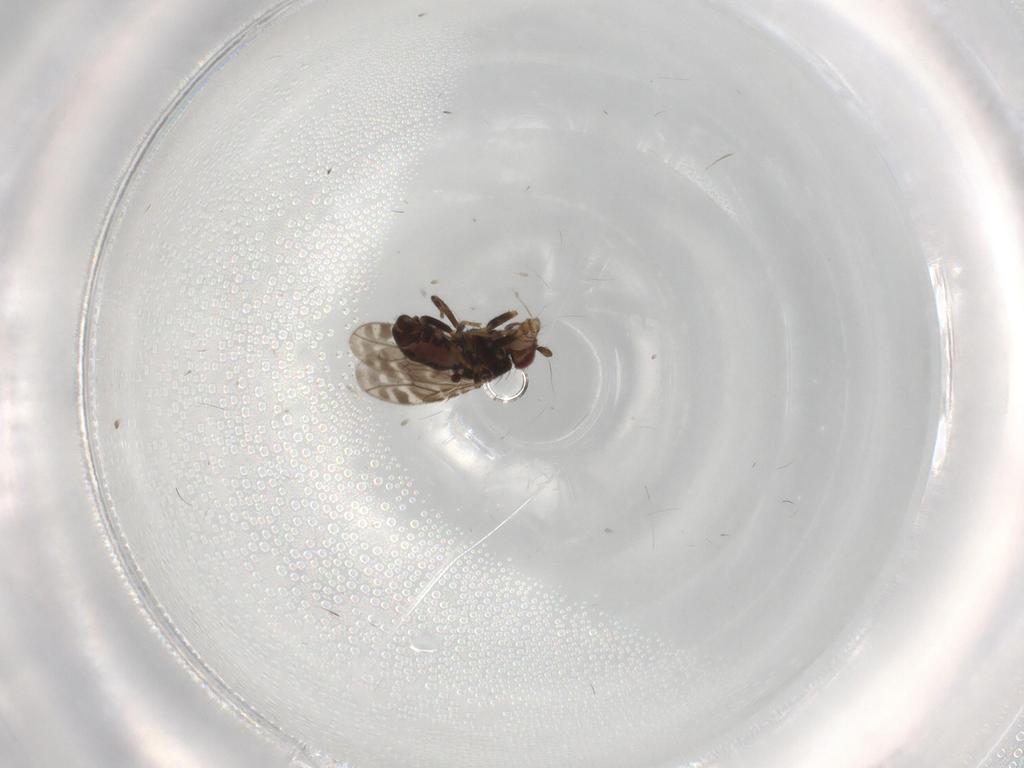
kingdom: Animalia
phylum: Arthropoda
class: Insecta
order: Diptera
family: Sphaeroceridae
